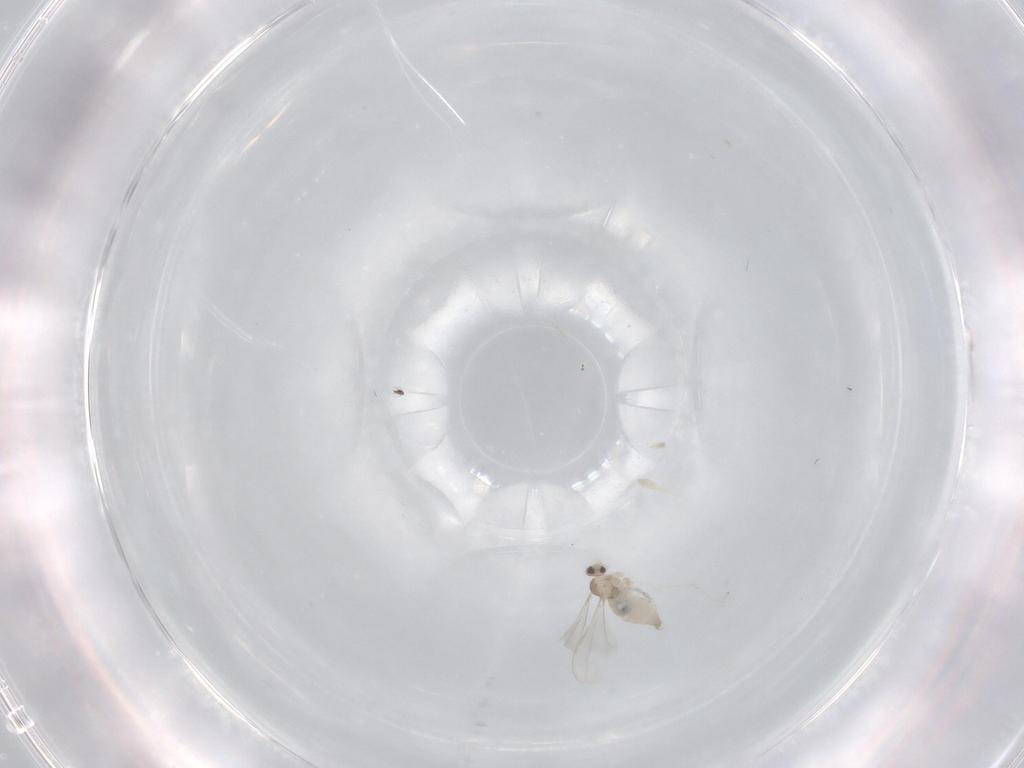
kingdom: Animalia
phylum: Arthropoda
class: Insecta
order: Diptera
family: Cecidomyiidae
